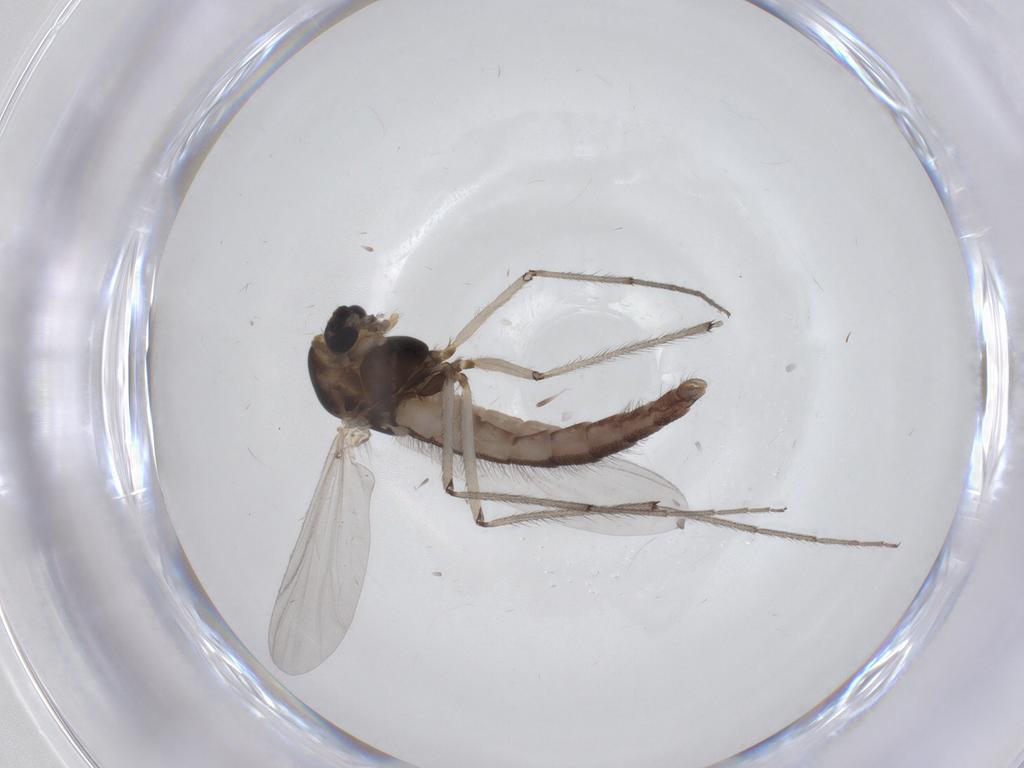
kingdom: Animalia
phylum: Arthropoda
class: Insecta
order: Diptera
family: Chironomidae
